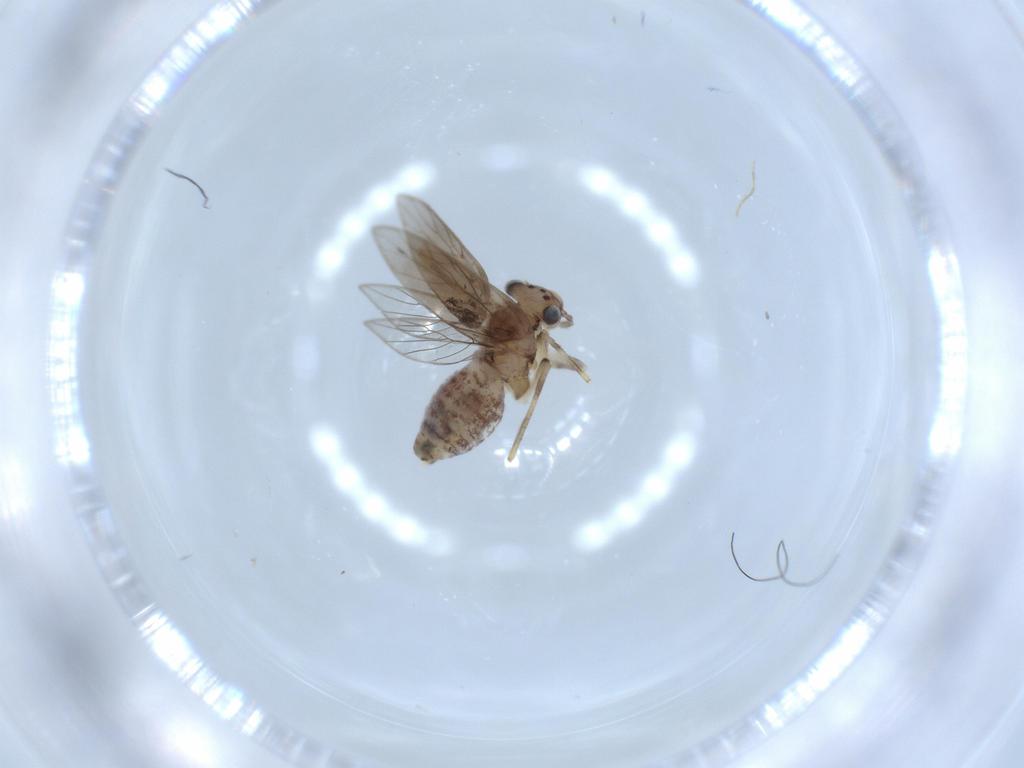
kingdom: Animalia
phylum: Arthropoda
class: Insecta
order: Psocodea
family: Lepidopsocidae
